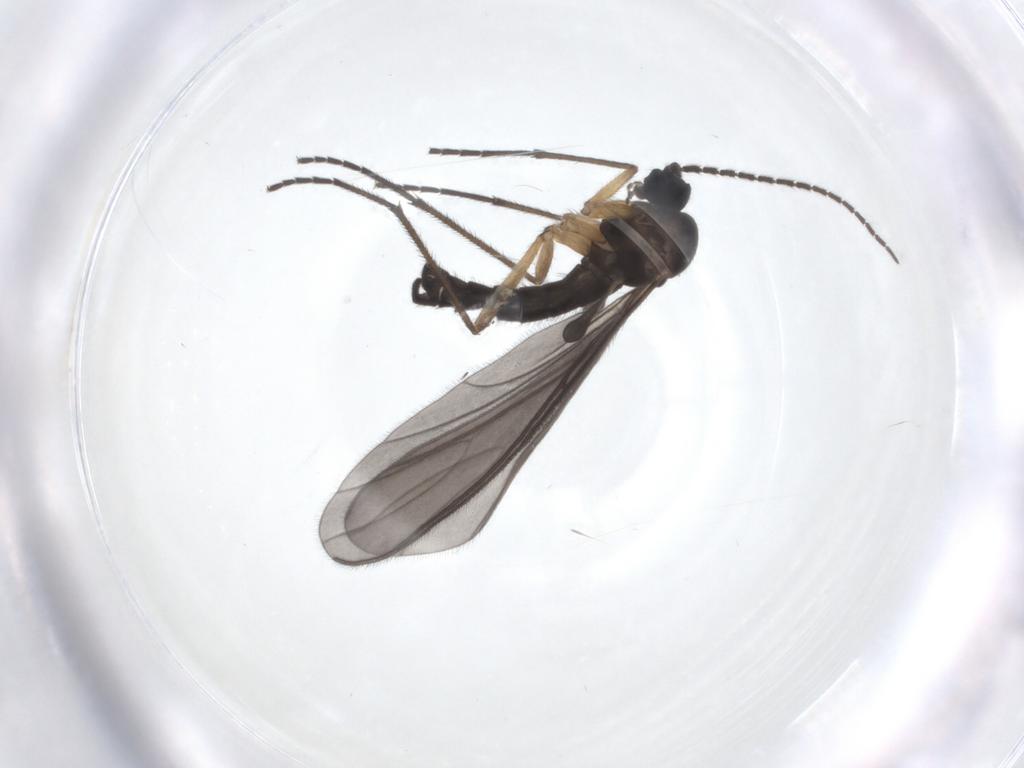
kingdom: Animalia
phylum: Arthropoda
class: Insecta
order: Diptera
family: Sciaridae
